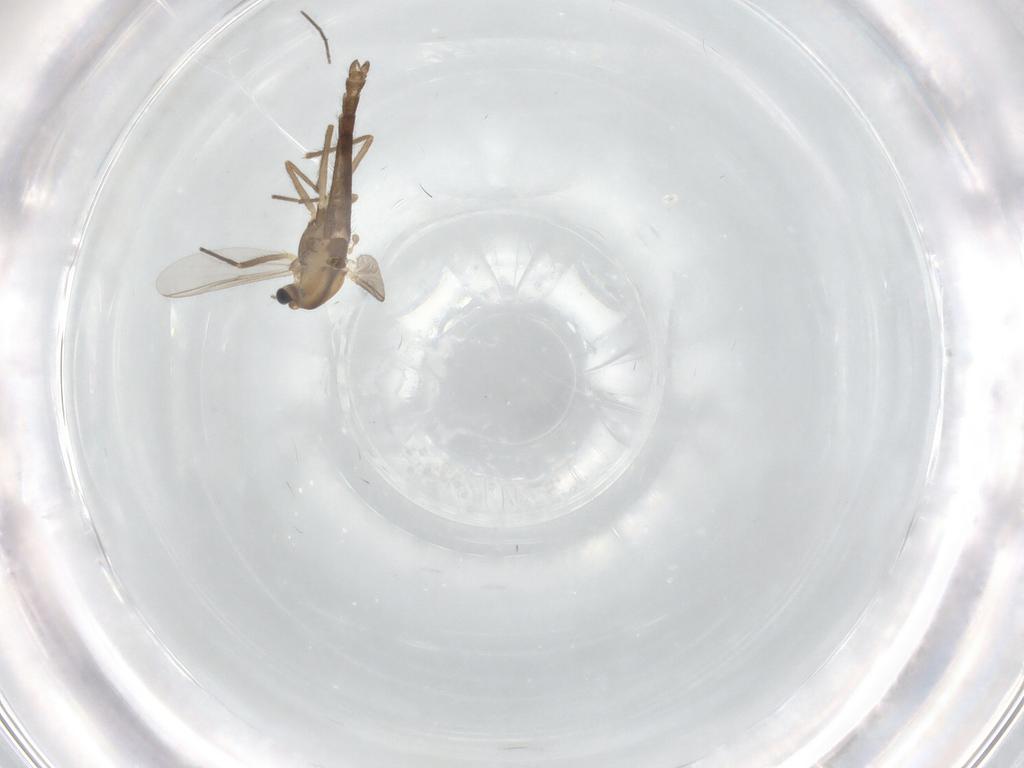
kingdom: Animalia
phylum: Arthropoda
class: Insecta
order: Diptera
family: Chironomidae
